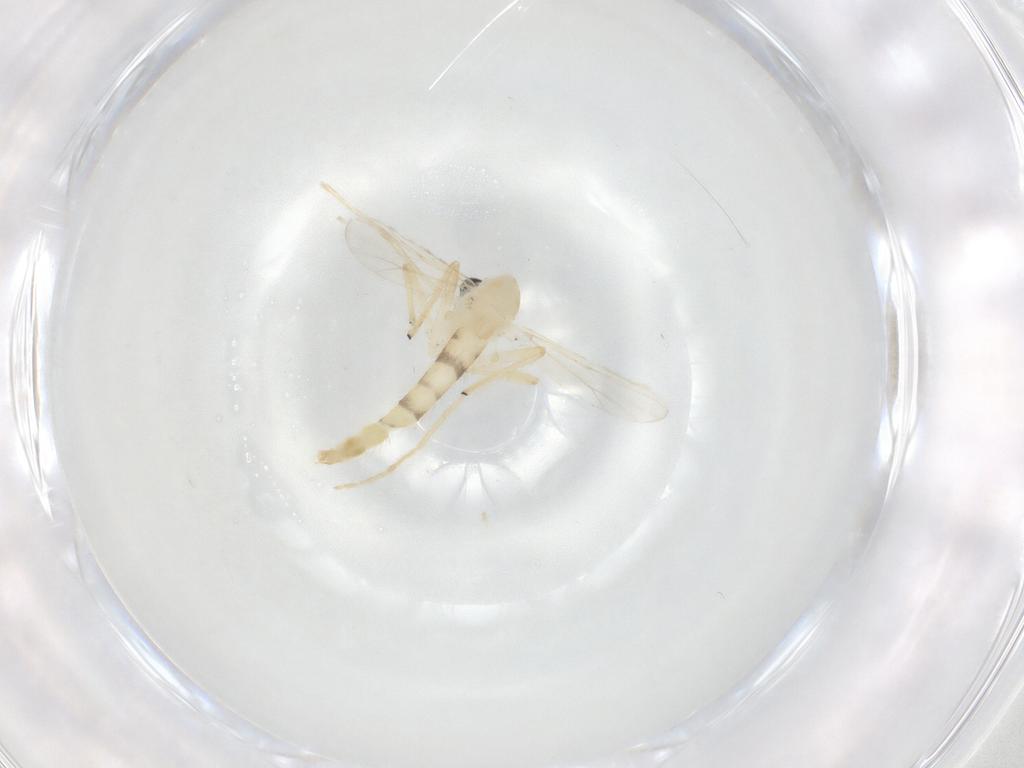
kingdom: Animalia
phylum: Arthropoda
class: Insecta
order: Diptera
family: Chironomidae
